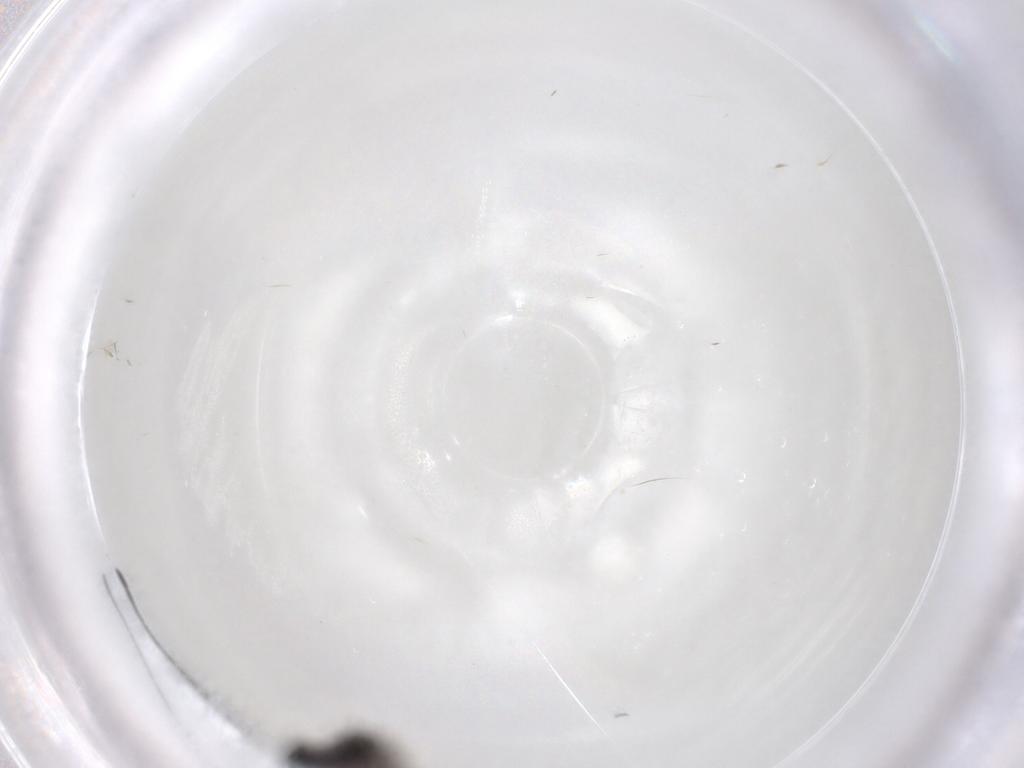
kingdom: Animalia
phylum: Arthropoda
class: Insecta
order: Hymenoptera
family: Figitidae
